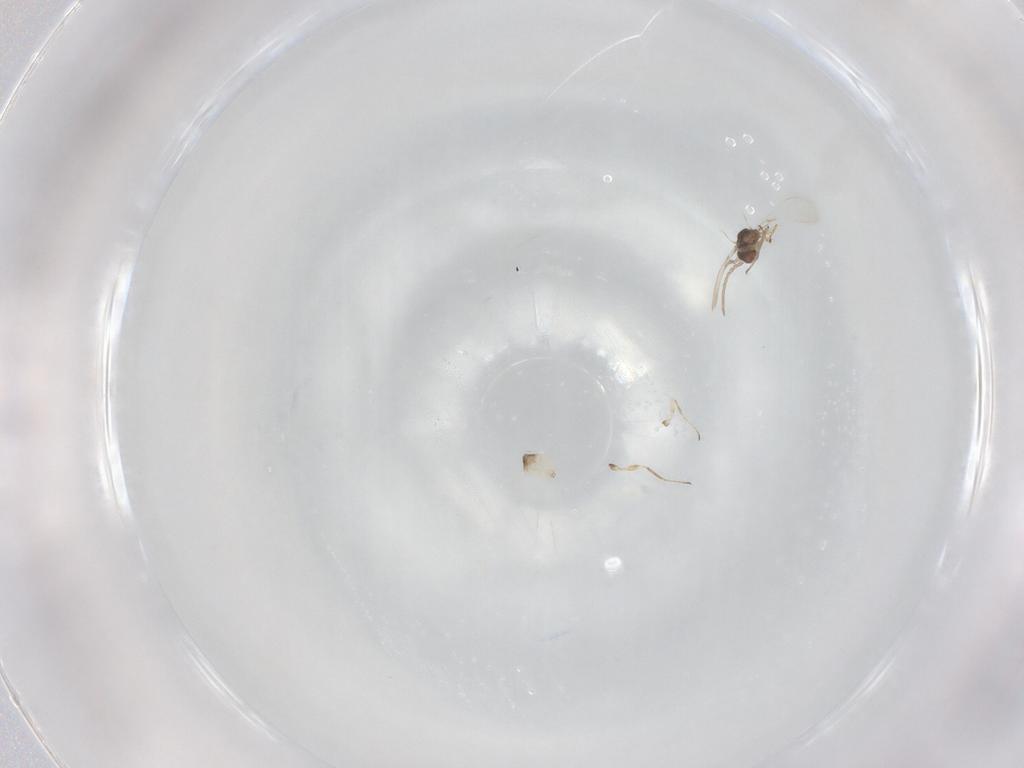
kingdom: Animalia
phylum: Arthropoda
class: Insecta
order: Hymenoptera
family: Mymaridae
